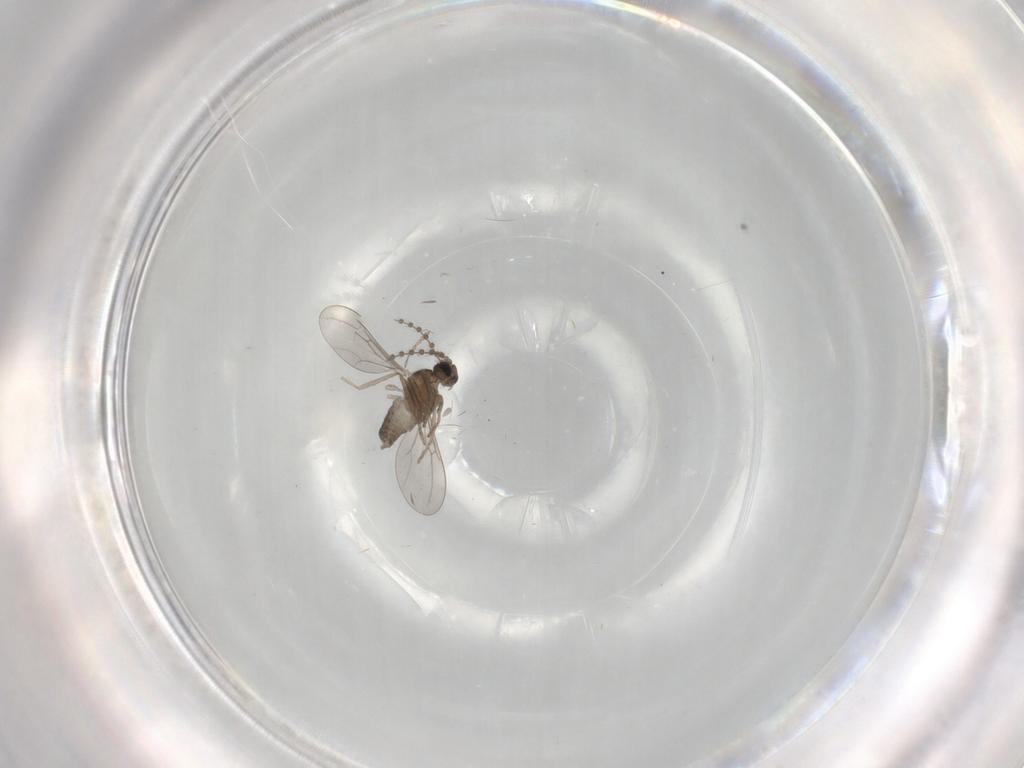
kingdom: Animalia
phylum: Arthropoda
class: Insecta
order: Diptera
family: Cecidomyiidae
